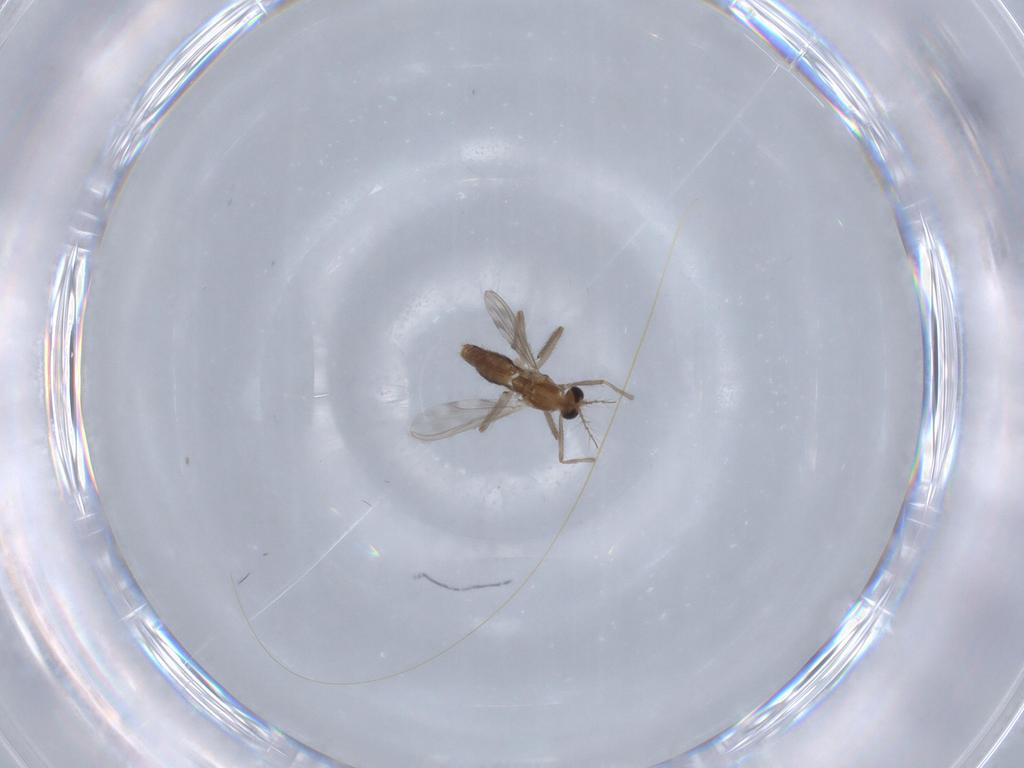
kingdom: Animalia
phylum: Arthropoda
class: Insecta
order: Diptera
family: Chironomidae
